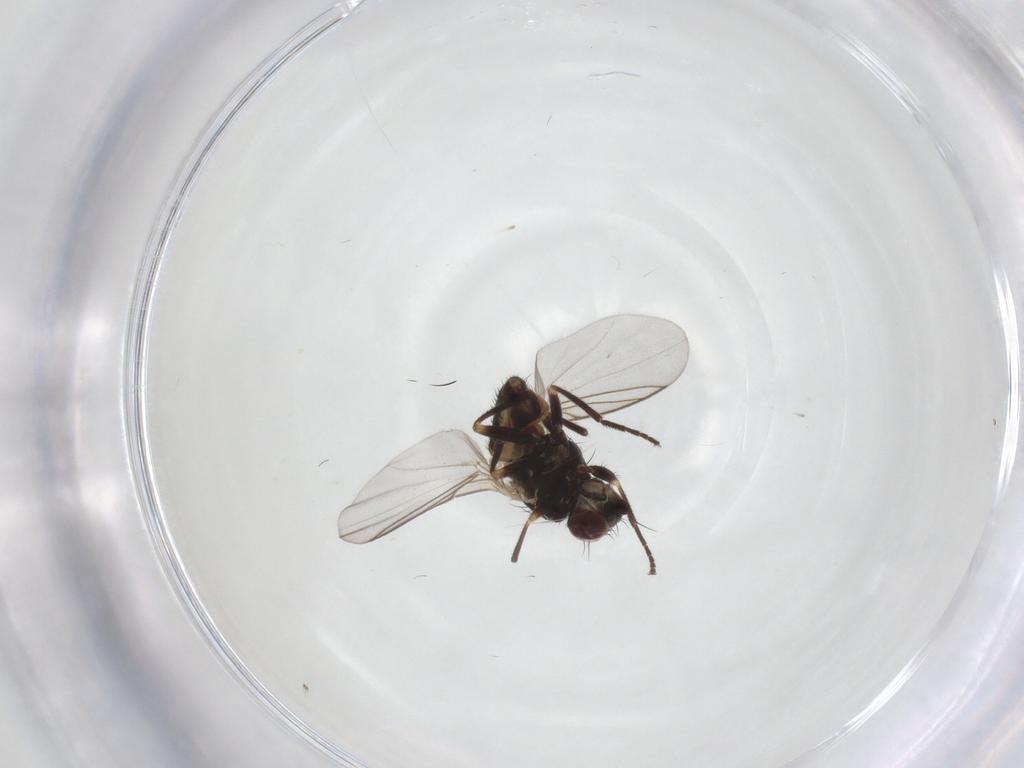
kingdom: Animalia
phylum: Arthropoda
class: Insecta
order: Diptera
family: Agromyzidae
